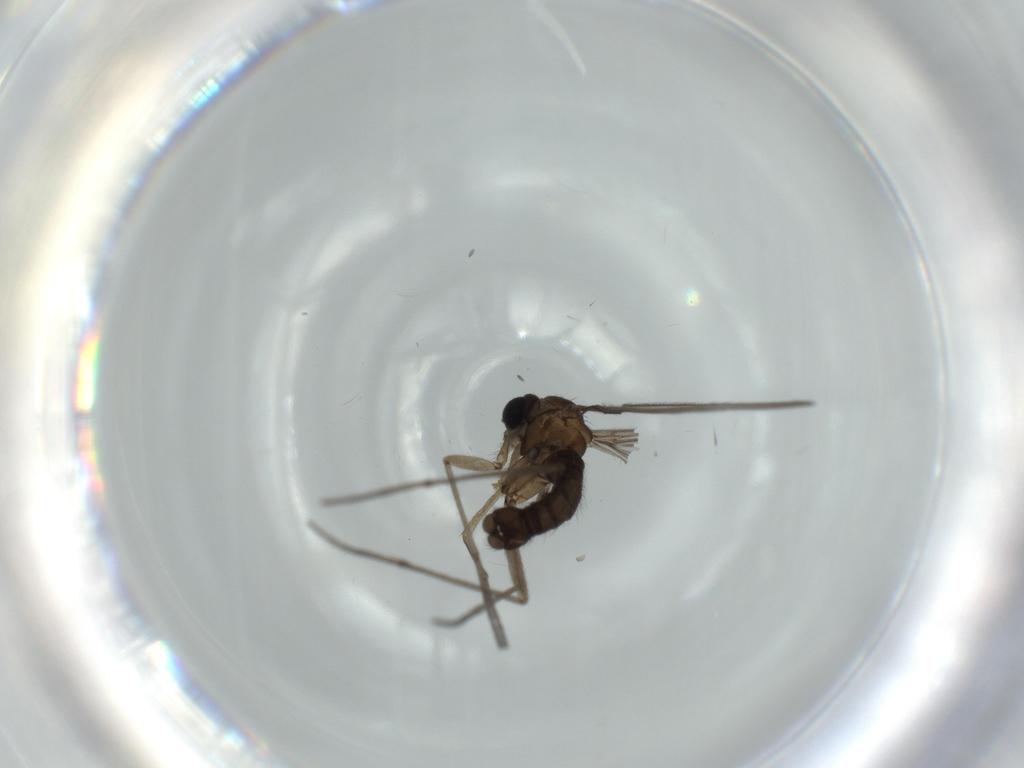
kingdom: Animalia
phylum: Arthropoda
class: Insecta
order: Diptera
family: Sciaridae
